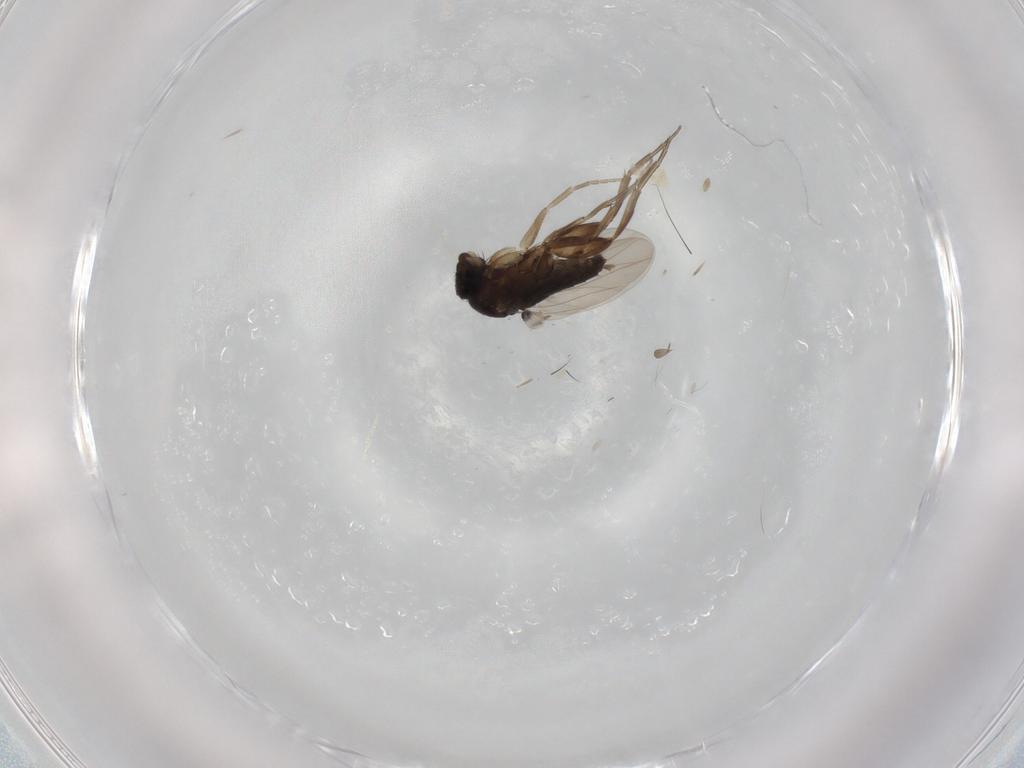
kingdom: Animalia
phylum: Arthropoda
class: Insecta
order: Diptera
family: Phoridae
